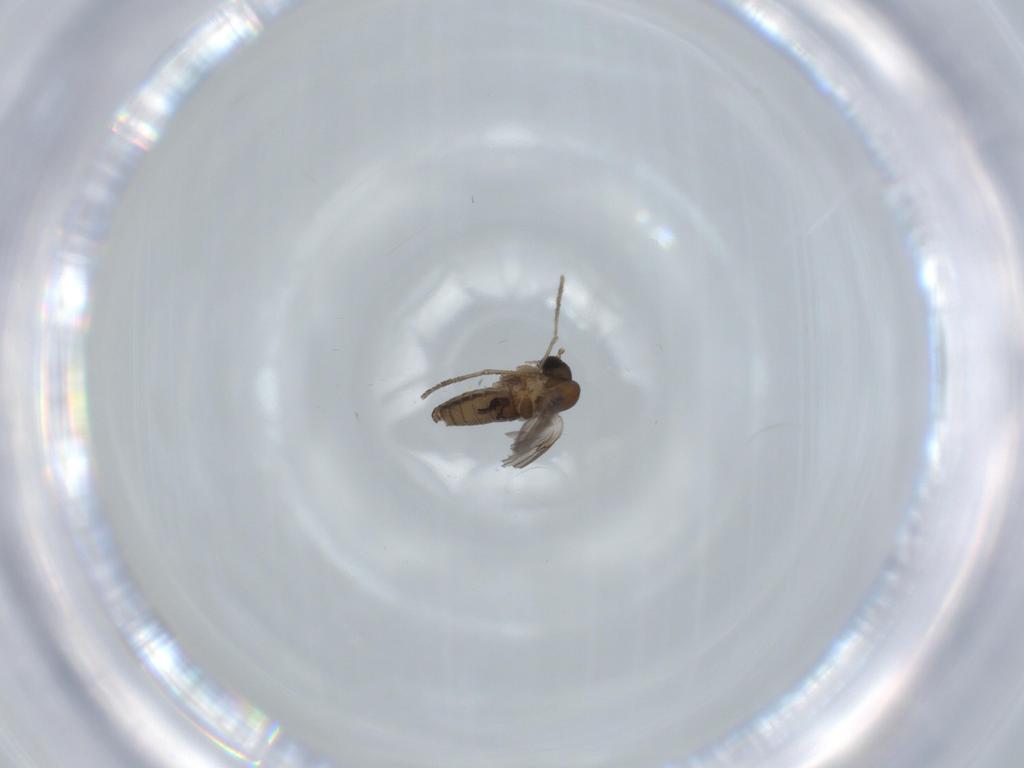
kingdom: Animalia
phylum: Arthropoda
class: Insecta
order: Diptera
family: Psychodidae
